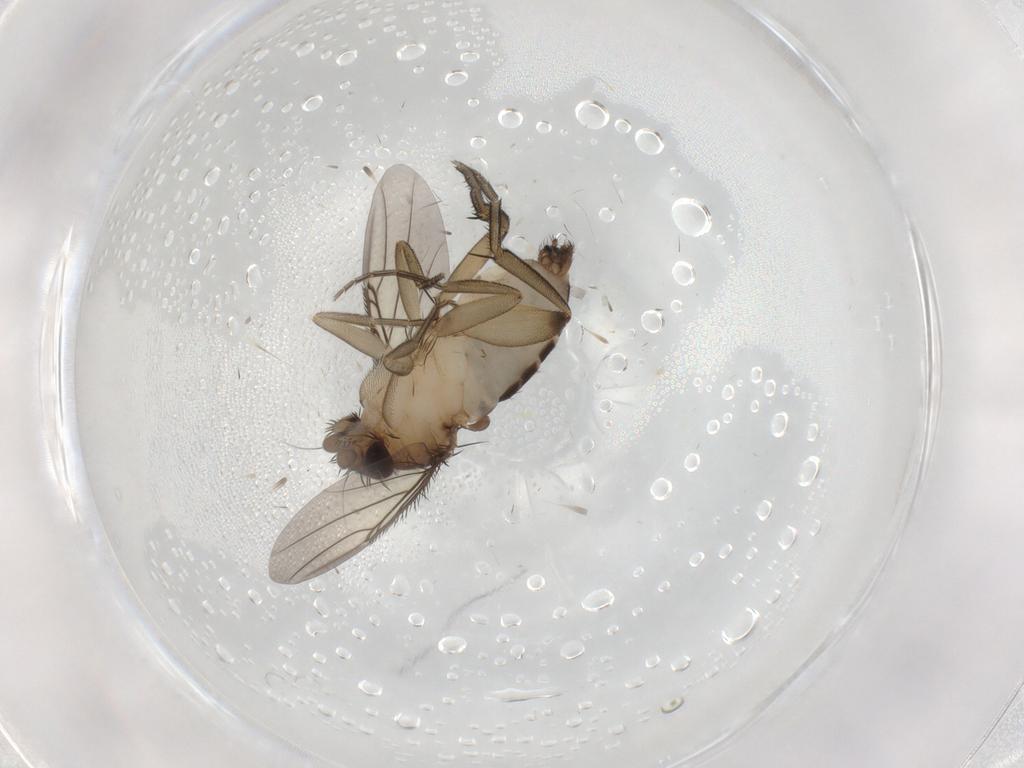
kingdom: Animalia
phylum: Arthropoda
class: Insecta
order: Diptera
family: Phoridae
